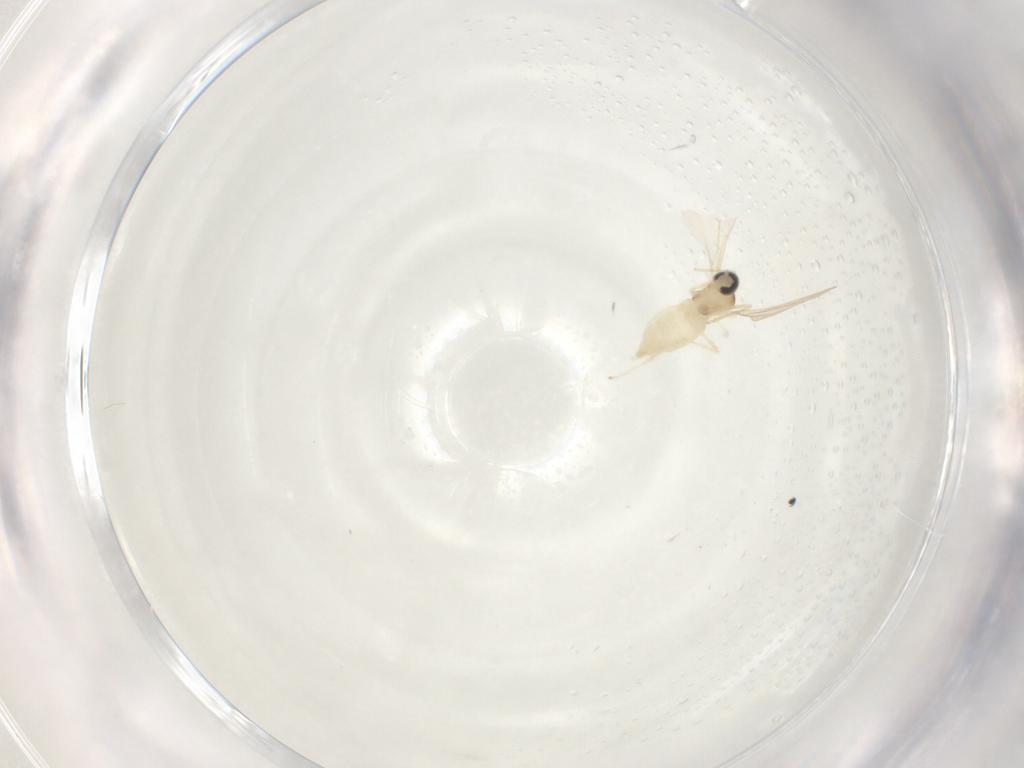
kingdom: Animalia
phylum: Arthropoda
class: Insecta
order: Diptera
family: Cecidomyiidae
